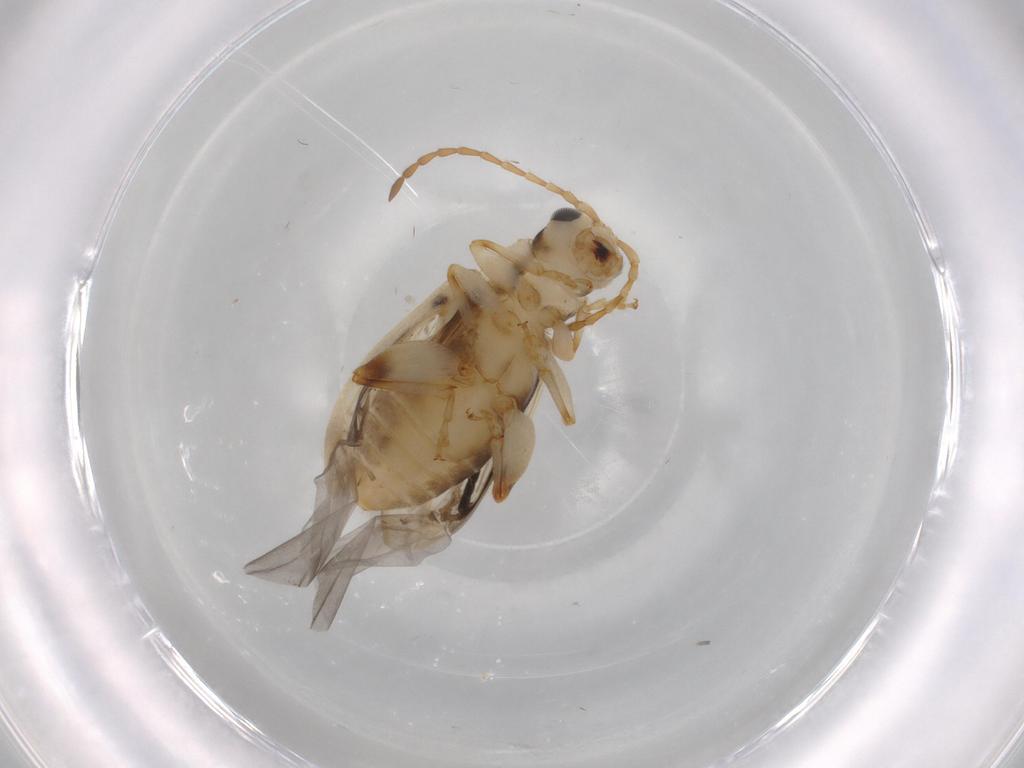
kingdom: Animalia
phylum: Arthropoda
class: Insecta
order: Coleoptera
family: Chrysomelidae
